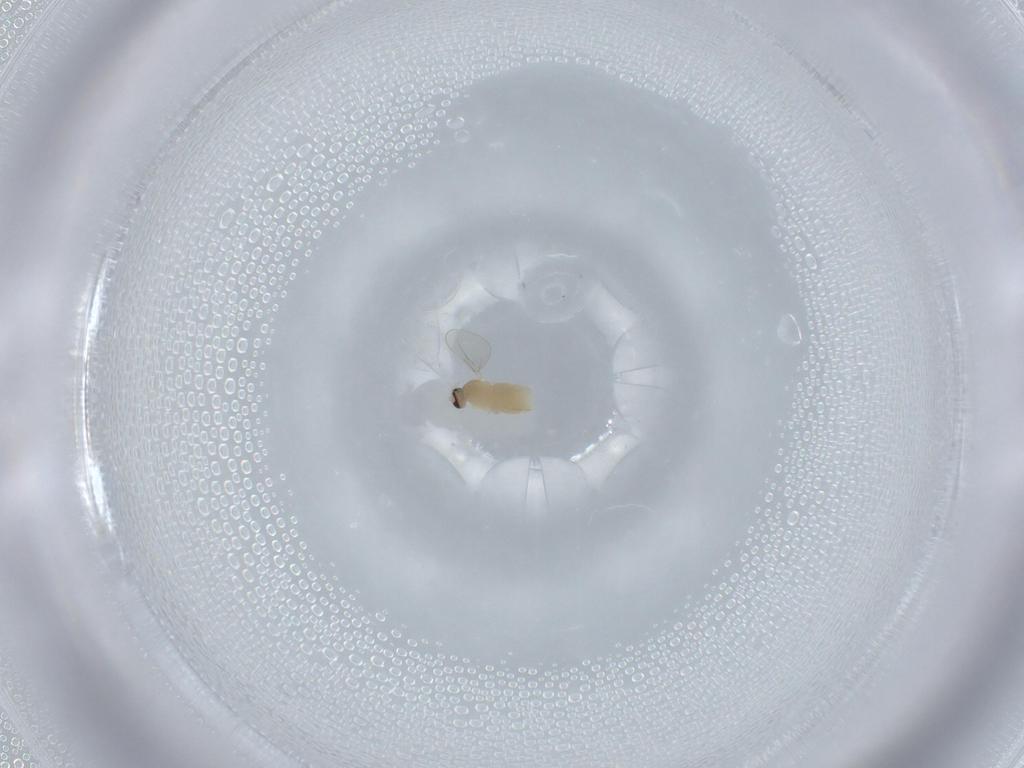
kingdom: Animalia
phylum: Arthropoda
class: Insecta
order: Diptera
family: Cecidomyiidae
